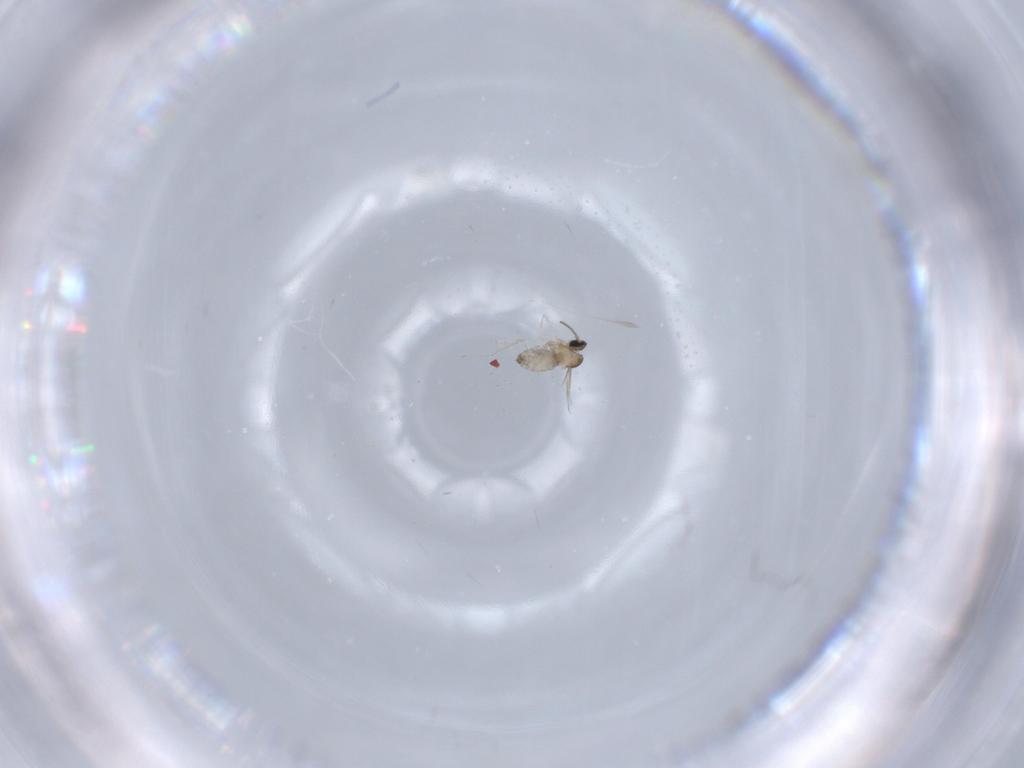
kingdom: Animalia
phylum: Arthropoda
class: Insecta
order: Diptera
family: Cecidomyiidae
